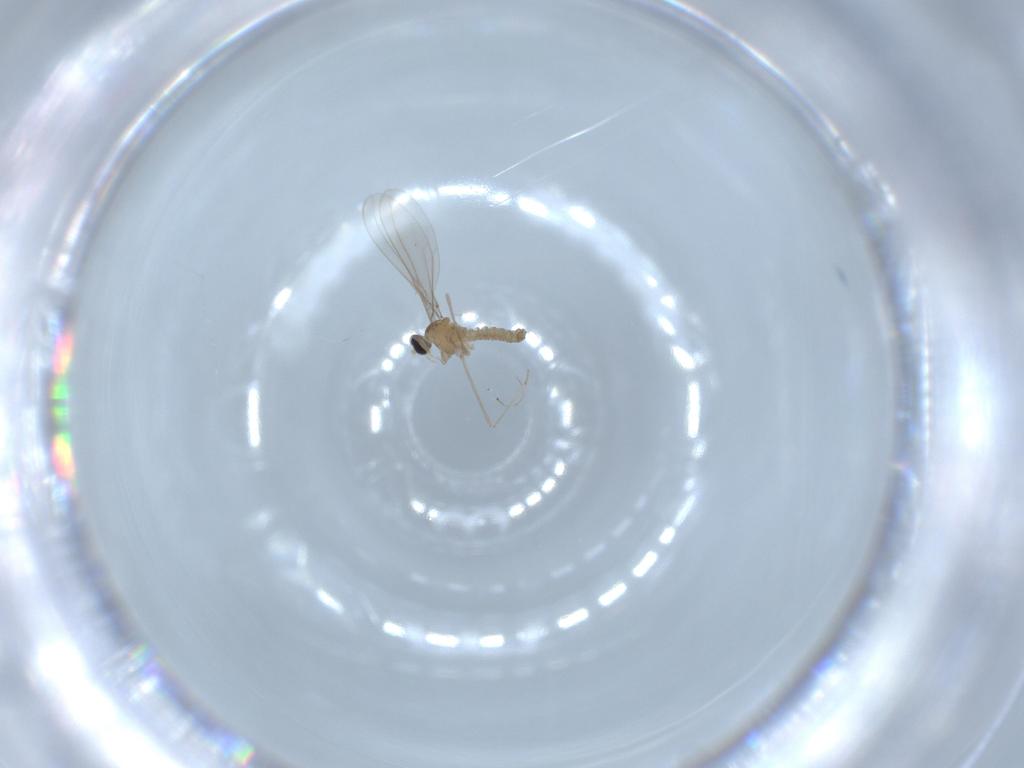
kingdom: Animalia
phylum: Arthropoda
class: Insecta
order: Diptera
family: Cecidomyiidae
